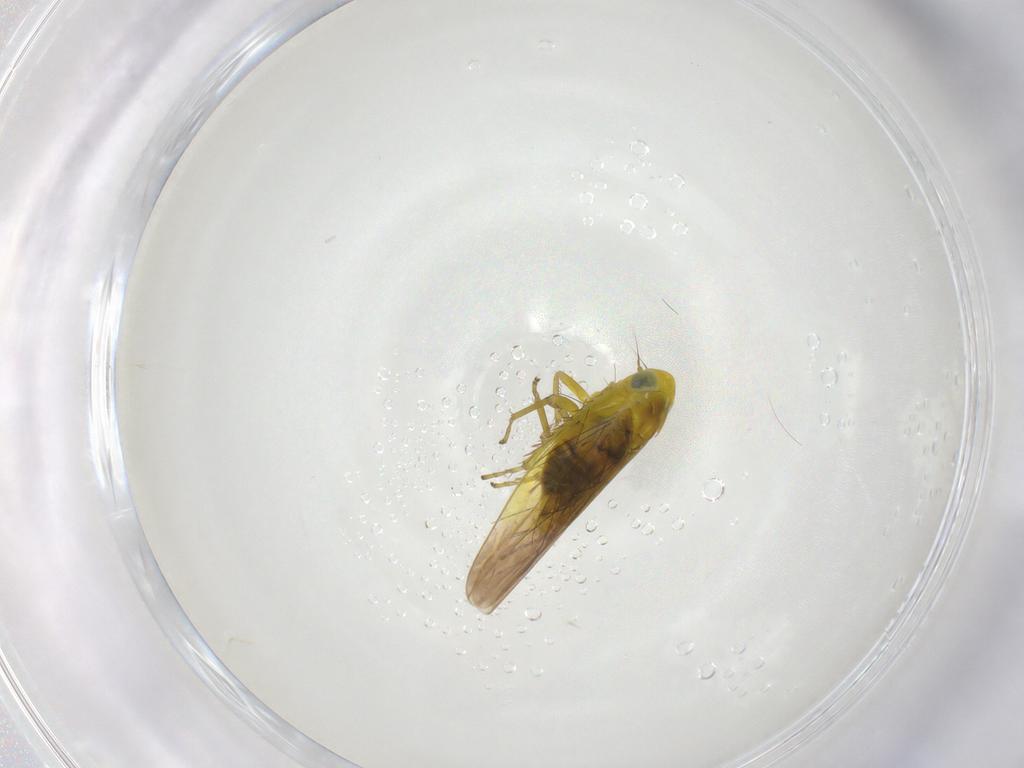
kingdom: Animalia
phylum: Arthropoda
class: Insecta
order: Hemiptera
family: Cicadellidae
